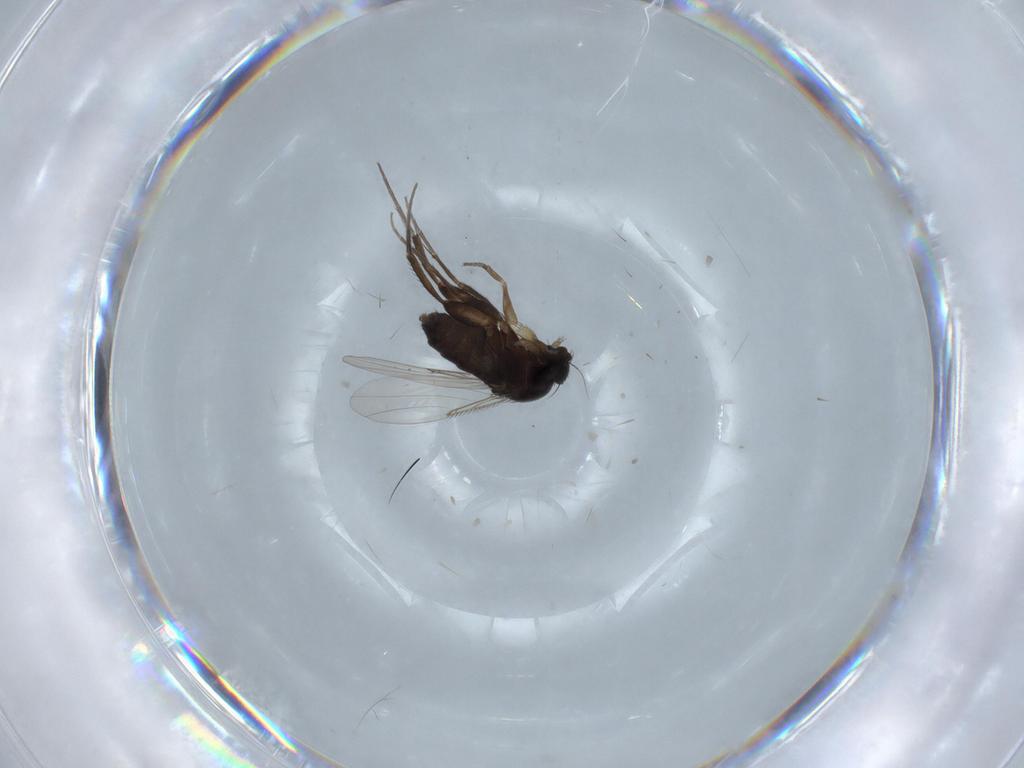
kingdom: Animalia
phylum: Arthropoda
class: Insecta
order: Diptera
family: Phoridae
